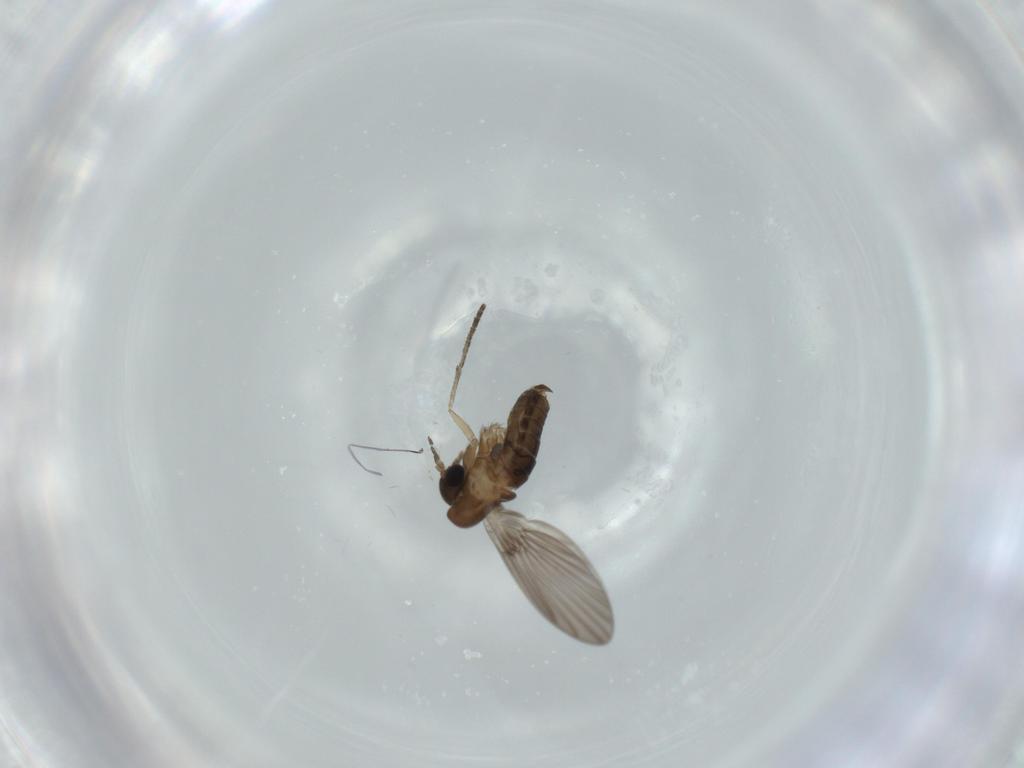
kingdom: Animalia
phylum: Arthropoda
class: Insecta
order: Diptera
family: Psychodidae
